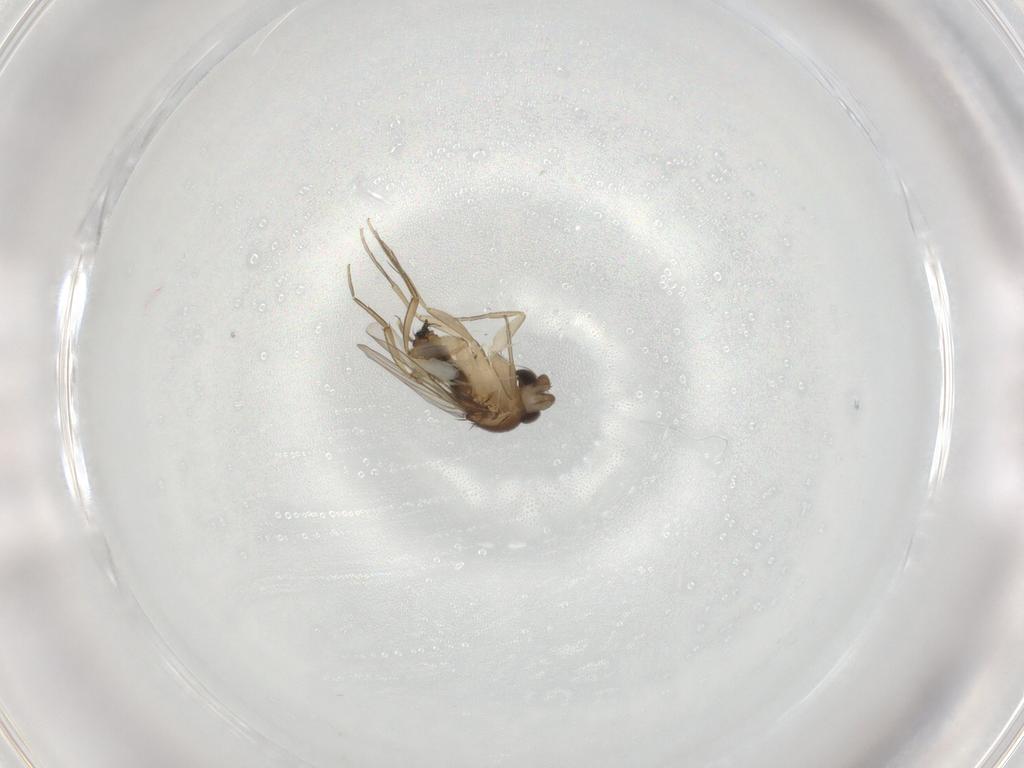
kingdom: Animalia
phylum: Arthropoda
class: Insecta
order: Diptera
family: Phoridae
